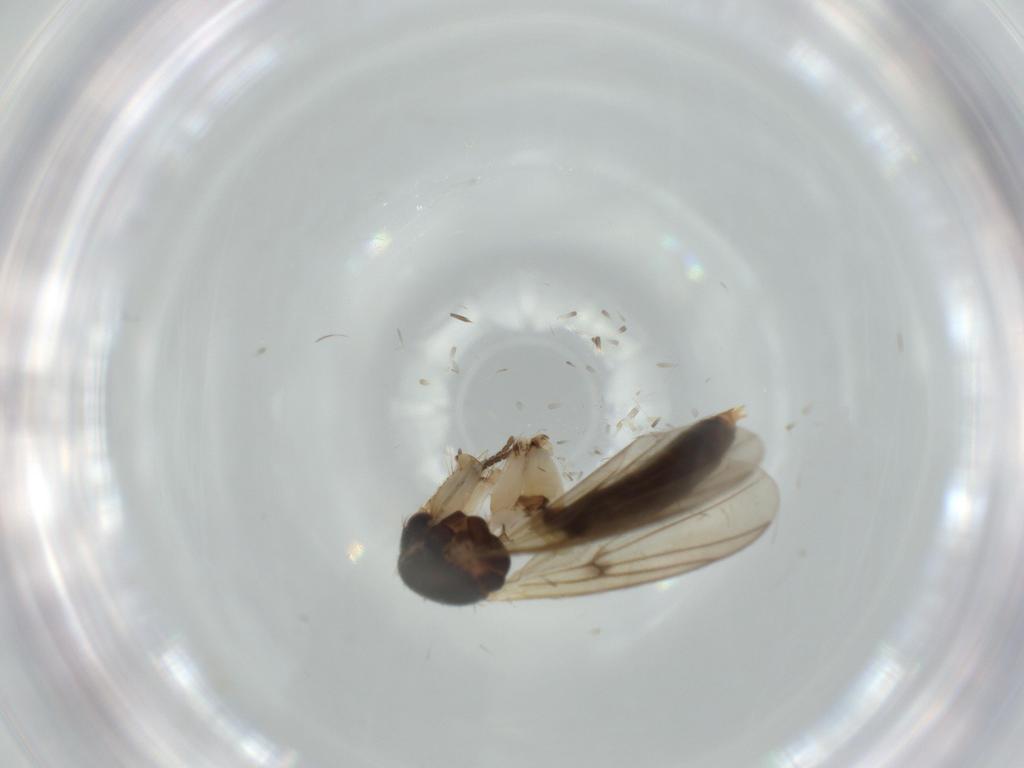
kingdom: Animalia
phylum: Arthropoda
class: Insecta
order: Diptera
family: Mycetophilidae
